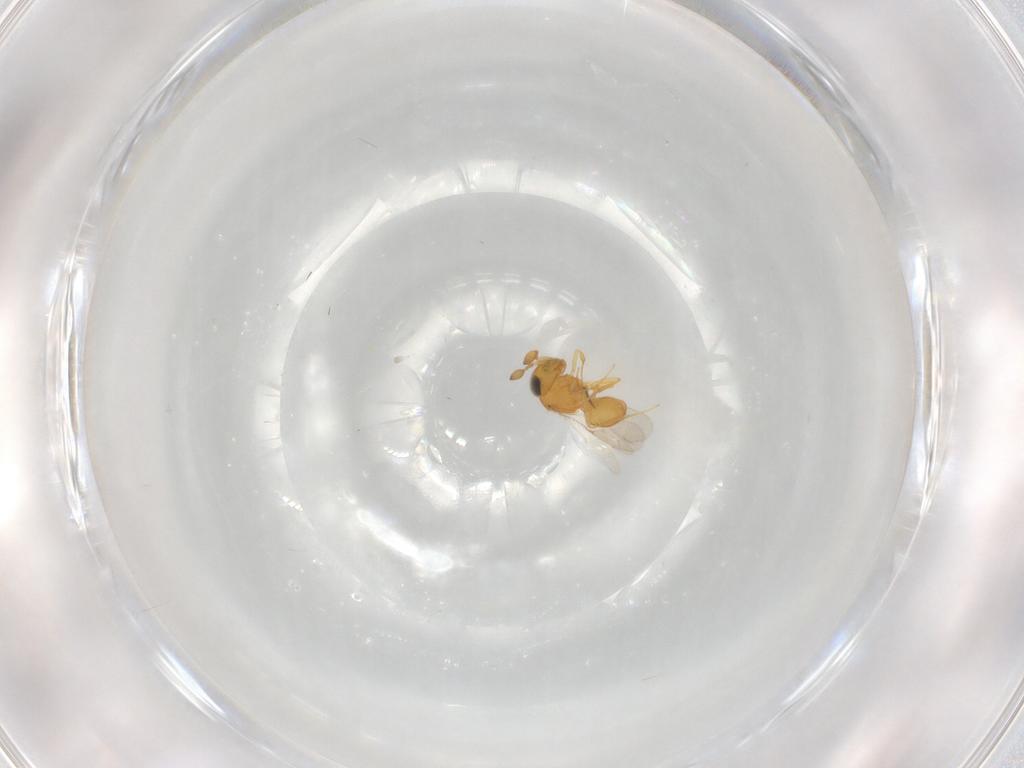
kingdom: Animalia
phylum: Arthropoda
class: Insecta
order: Hymenoptera
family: Scelionidae
